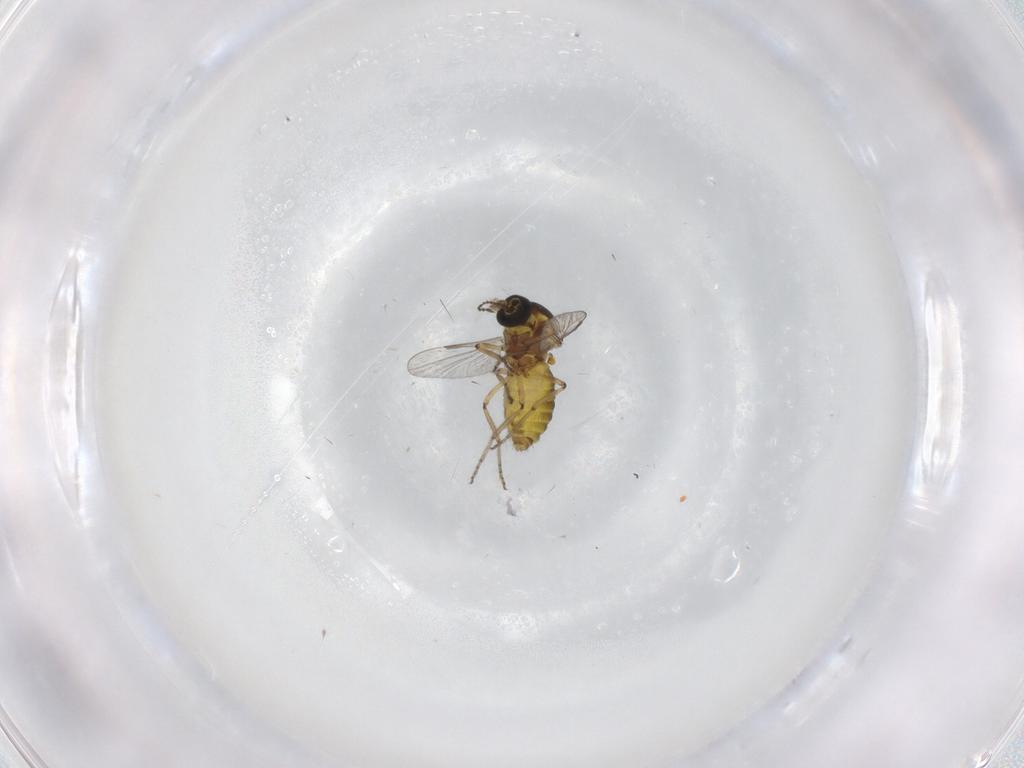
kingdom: Animalia
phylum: Arthropoda
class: Insecta
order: Diptera
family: Ceratopogonidae
